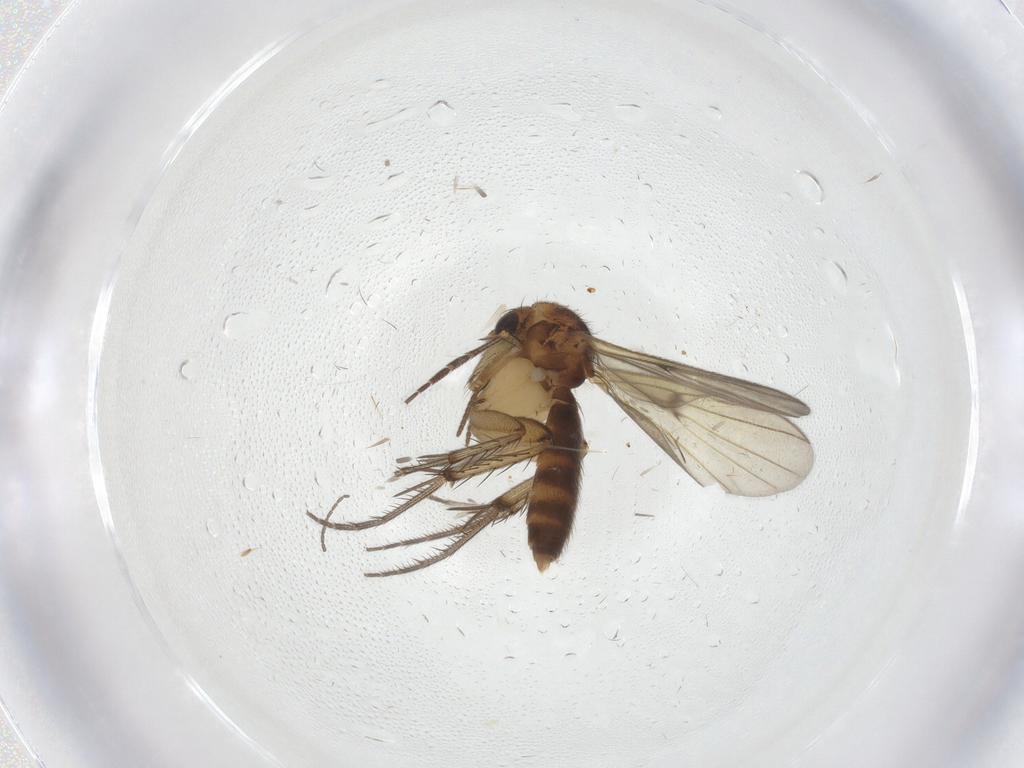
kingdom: Animalia
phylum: Arthropoda
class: Insecta
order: Diptera
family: Psychodidae
